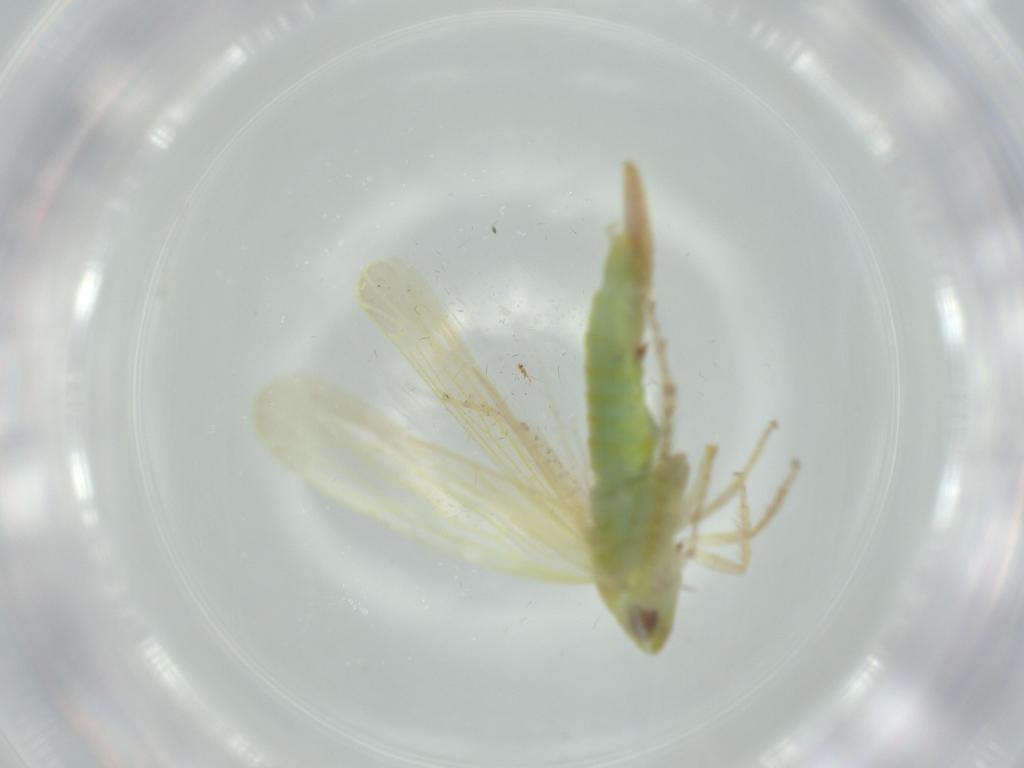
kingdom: Animalia
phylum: Arthropoda
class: Insecta
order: Hemiptera
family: Cicadellidae
